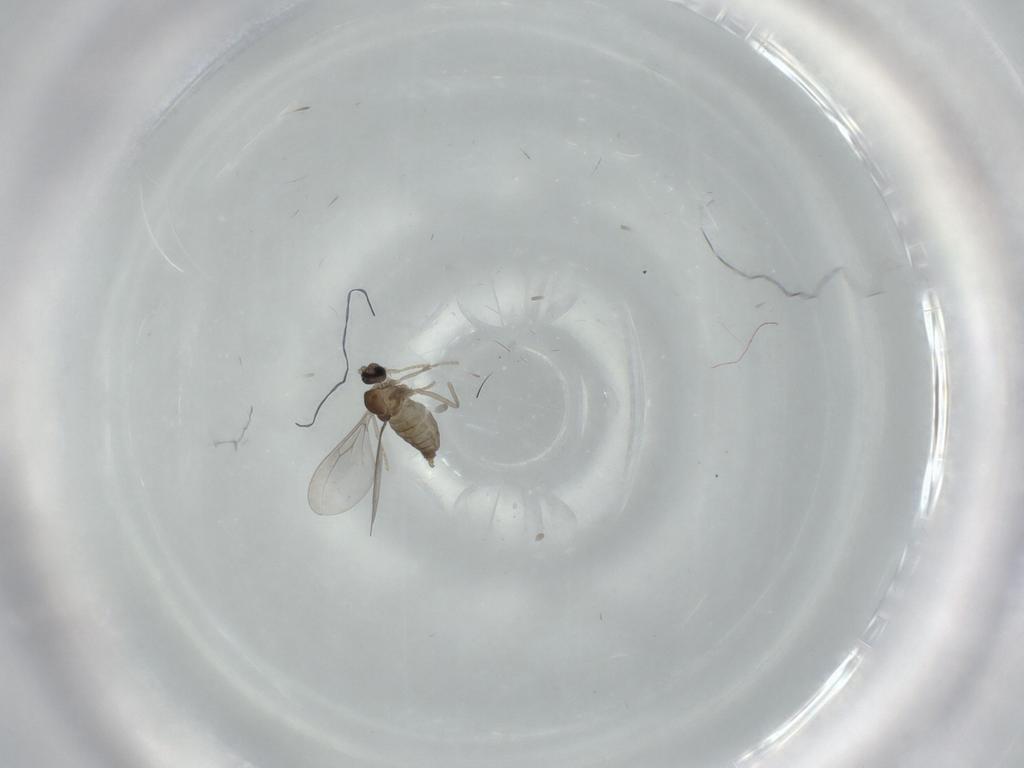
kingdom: Animalia
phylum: Arthropoda
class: Insecta
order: Diptera
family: Cecidomyiidae
